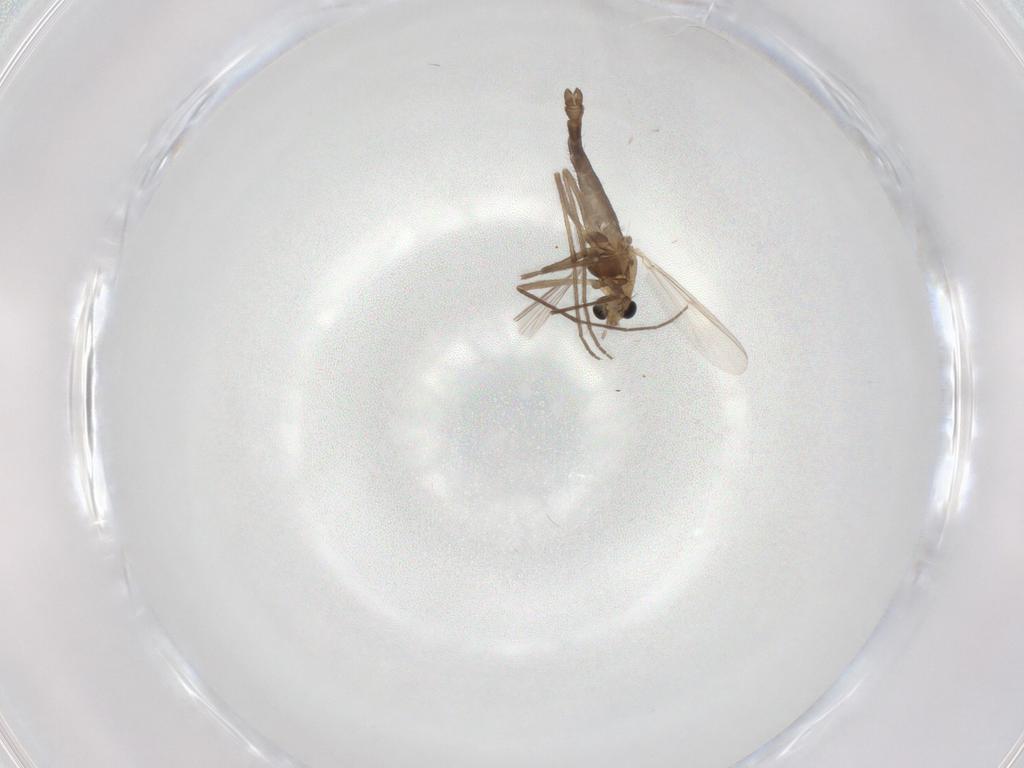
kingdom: Animalia
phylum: Arthropoda
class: Insecta
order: Diptera
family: Chironomidae
